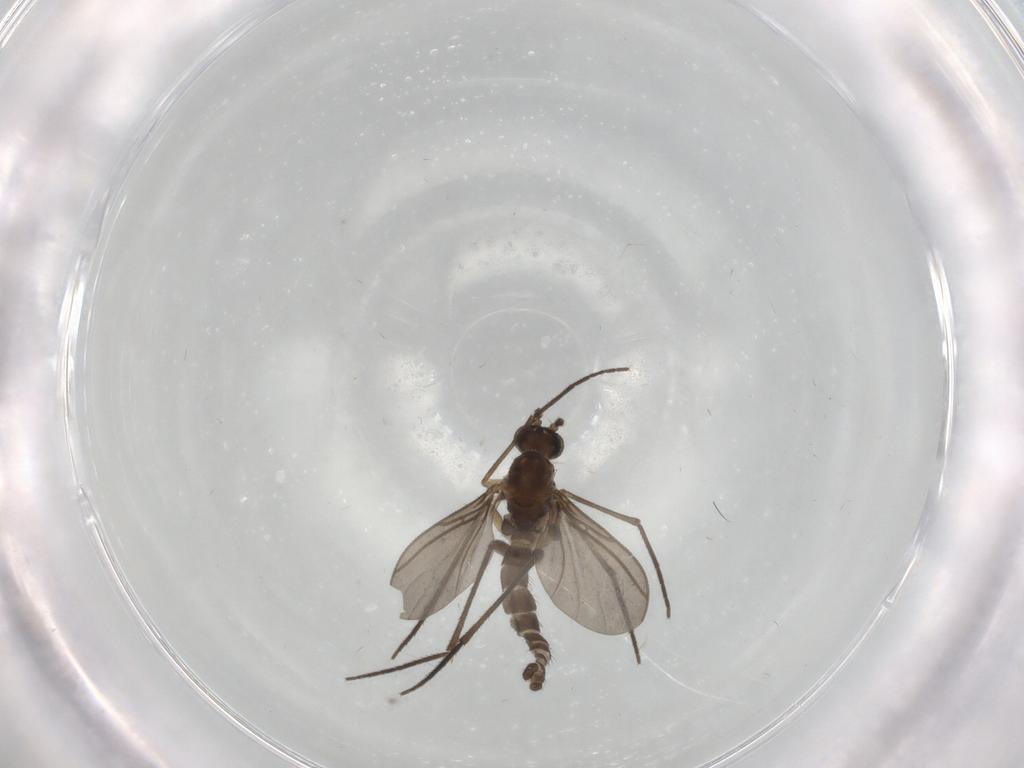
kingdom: Animalia
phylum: Arthropoda
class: Insecta
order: Diptera
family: Sciaridae
